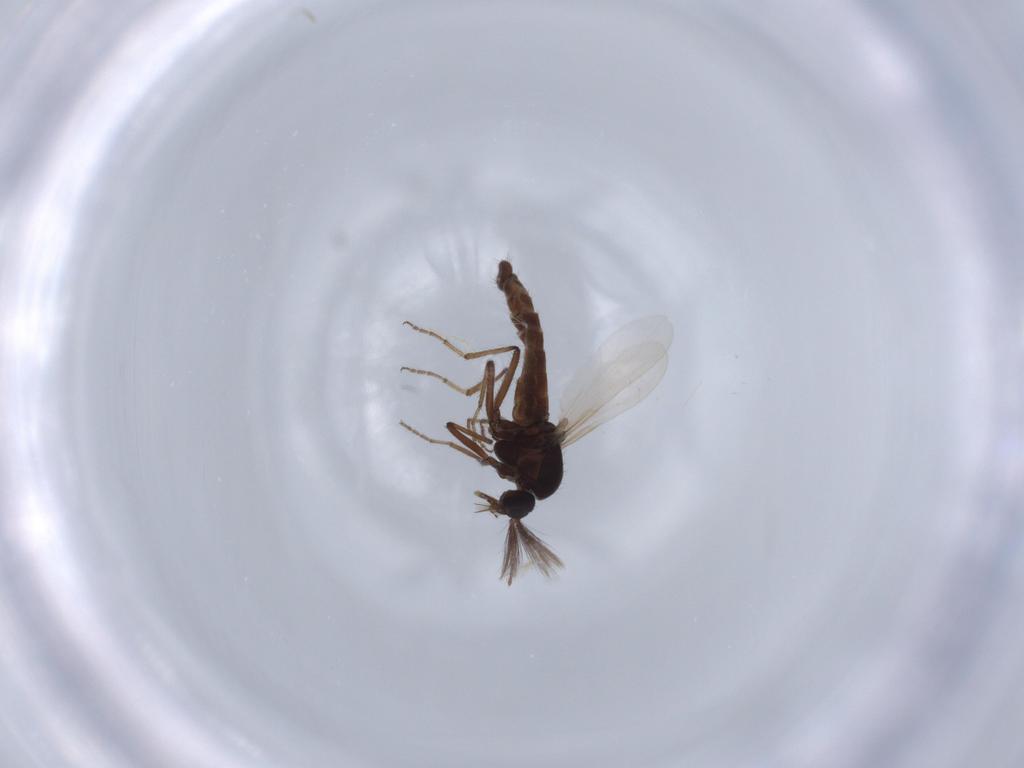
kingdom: Animalia
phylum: Arthropoda
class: Insecta
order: Diptera
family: Ceratopogonidae
